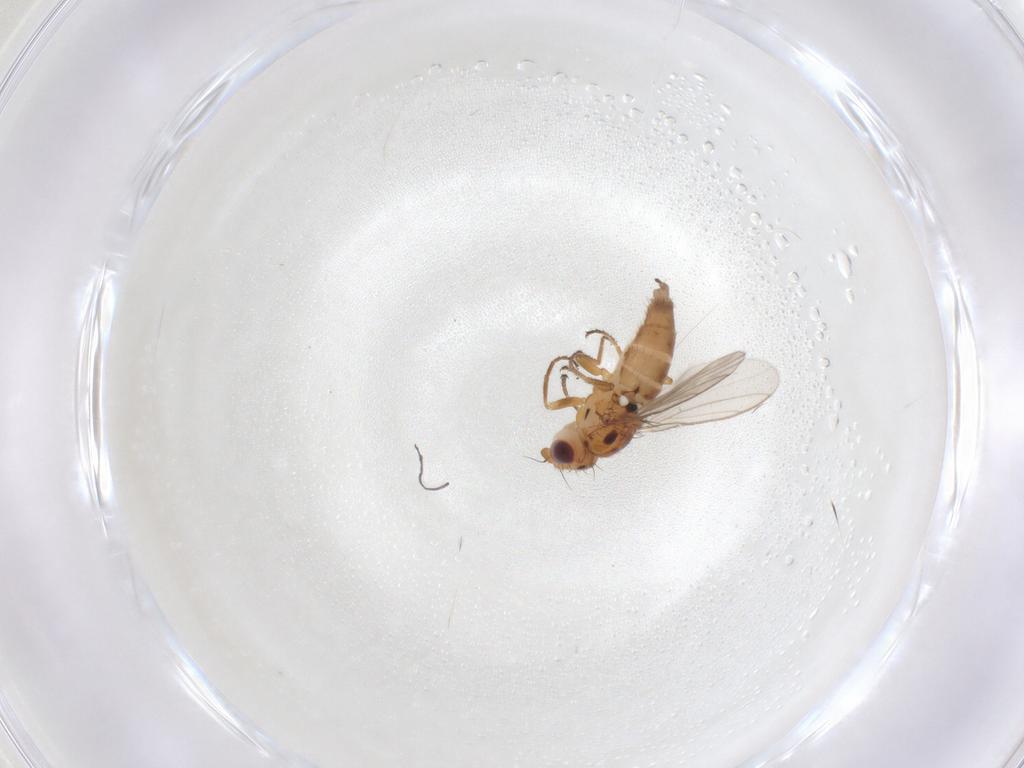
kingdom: Animalia
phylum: Arthropoda
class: Insecta
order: Diptera
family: Chloropidae
